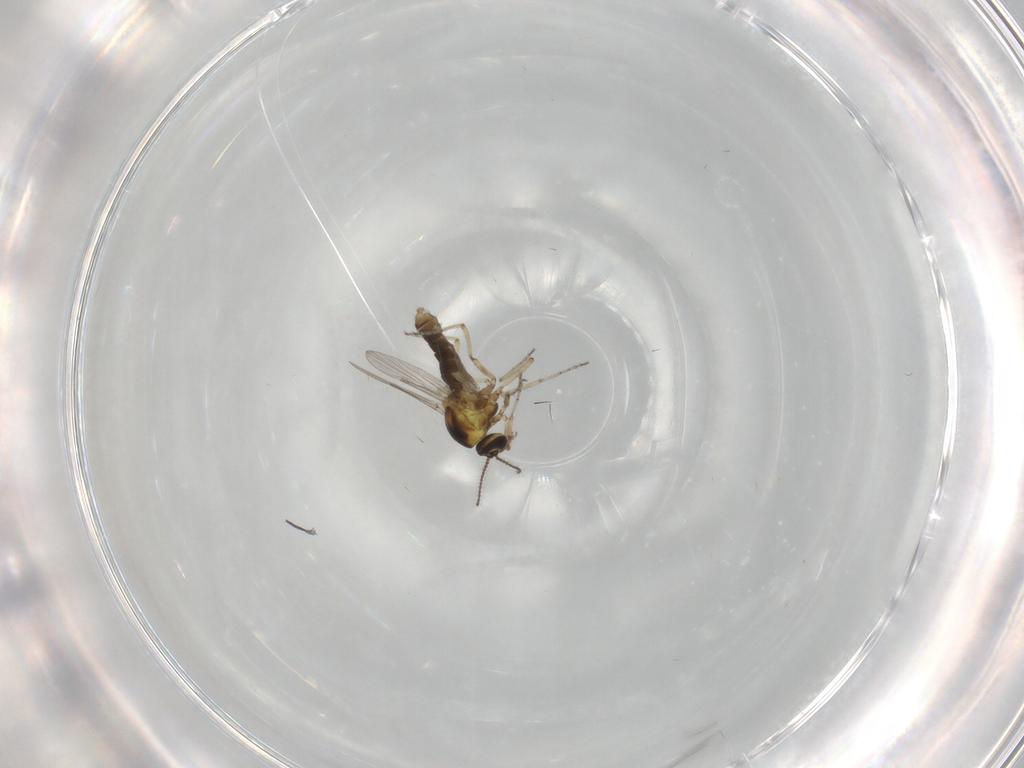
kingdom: Animalia
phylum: Arthropoda
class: Insecta
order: Diptera
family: Ceratopogonidae
